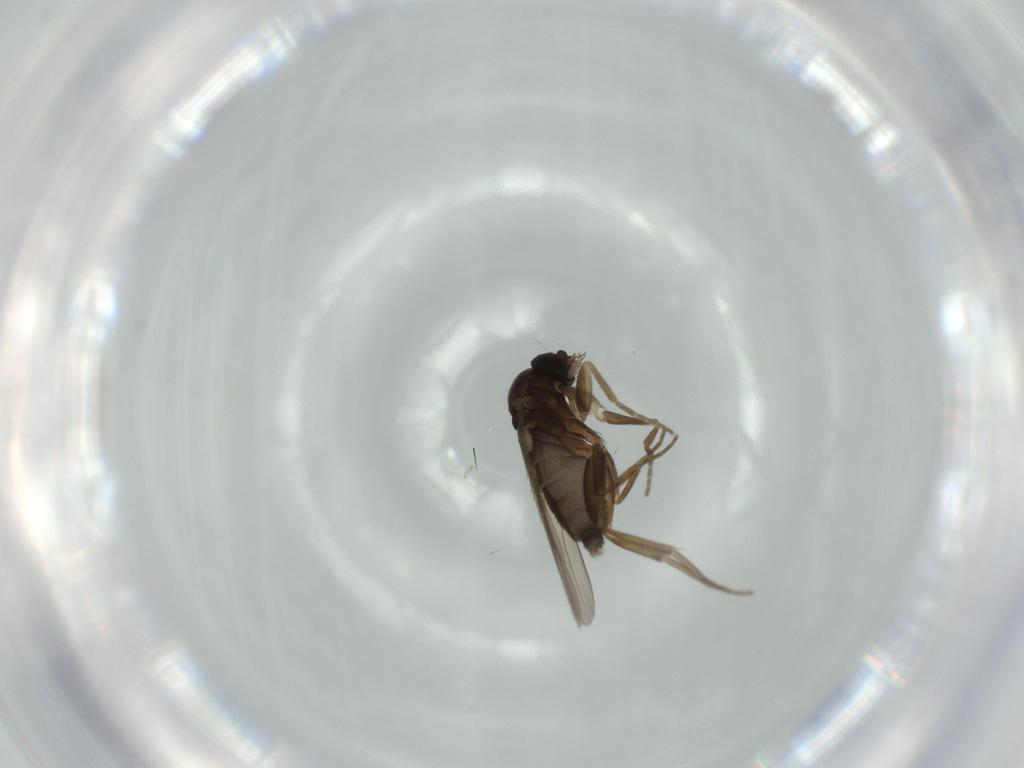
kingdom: Animalia
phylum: Arthropoda
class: Insecta
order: Diptera
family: Phoridae
